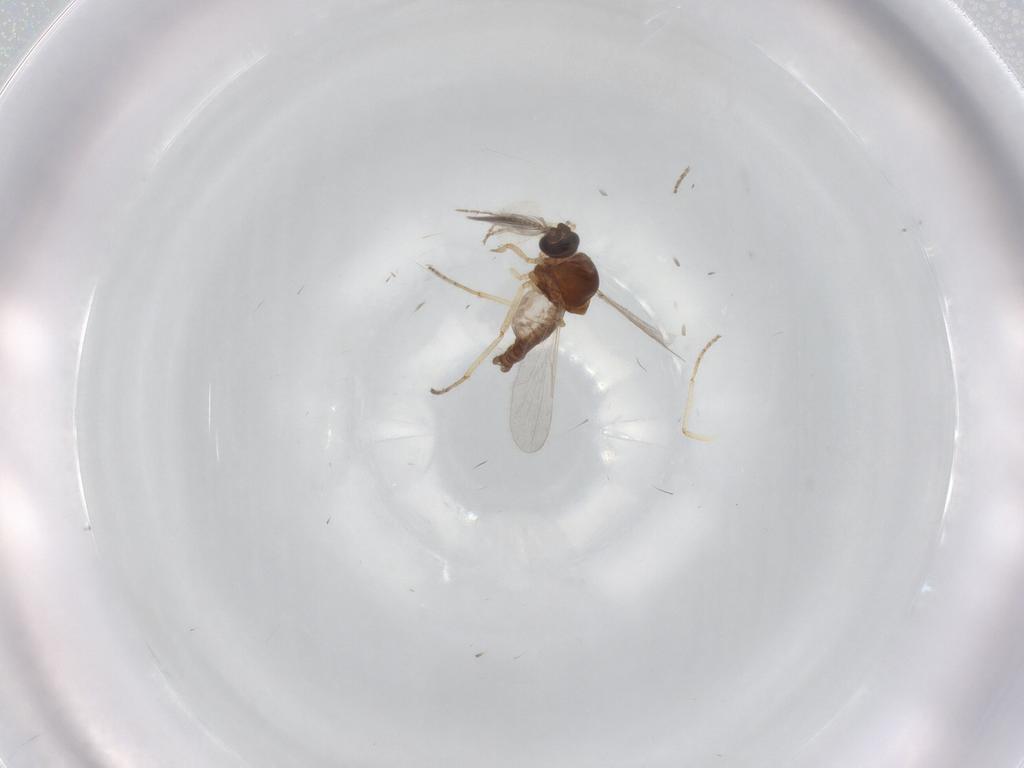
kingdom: Animalia
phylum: Arthropoda
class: Insecta
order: Diptera
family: Ceratopogonidae
